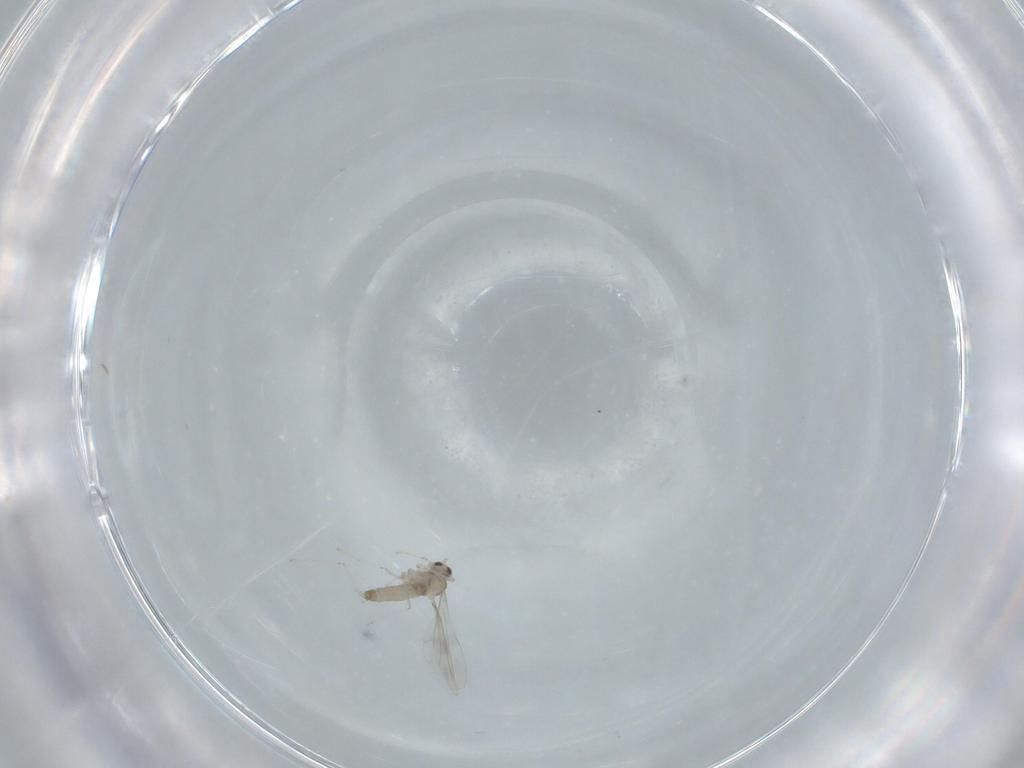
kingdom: Animalia
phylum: Arthropoda
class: Insecta
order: Diptera
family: Cecidomyiidae
